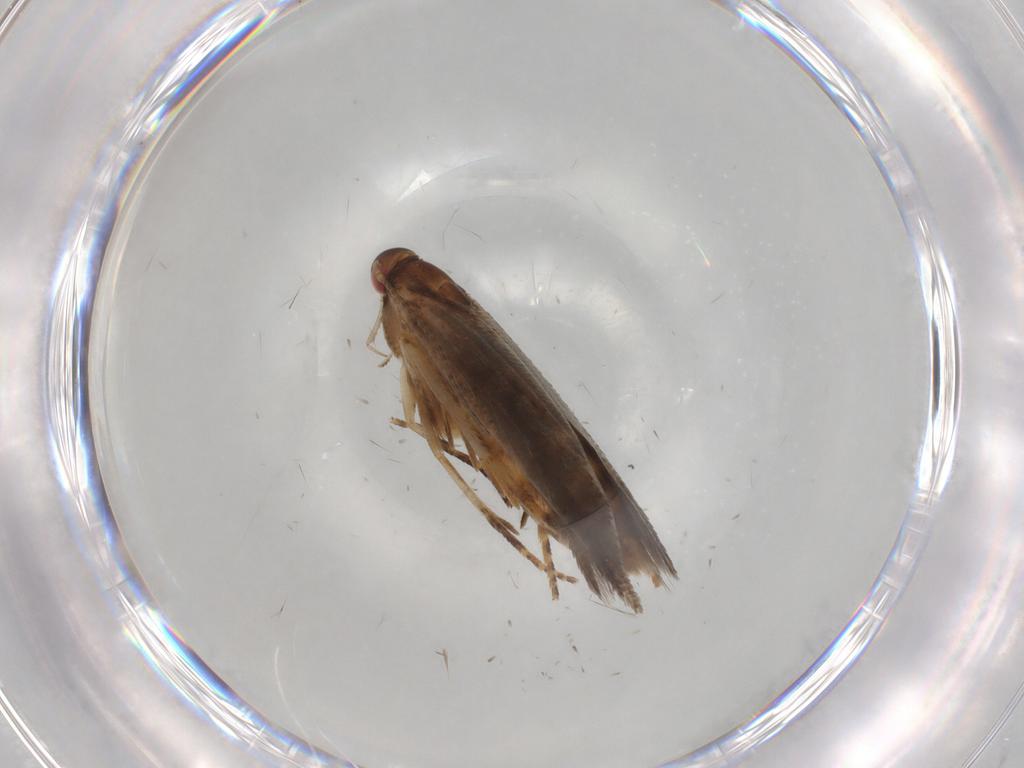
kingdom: Animalia
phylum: Arthropoda
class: Insecta
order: Lepidoptera
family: Gelechiidae
